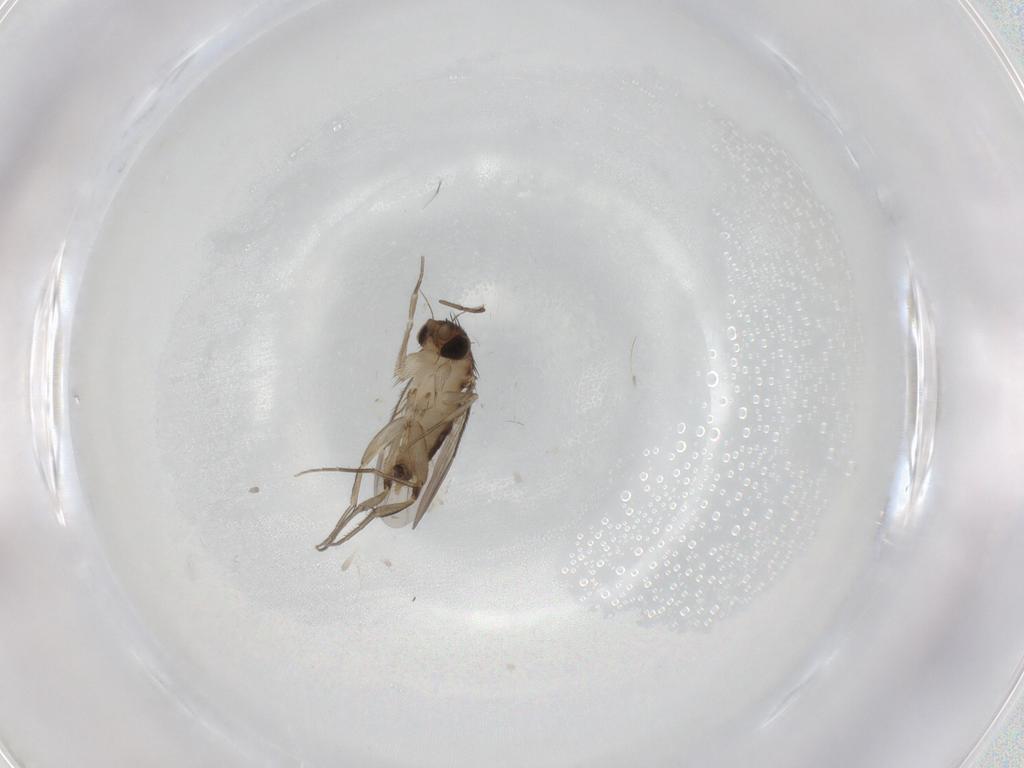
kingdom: Animalia
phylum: Arthropoda
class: Insecta
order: Diptera
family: Phoridae
